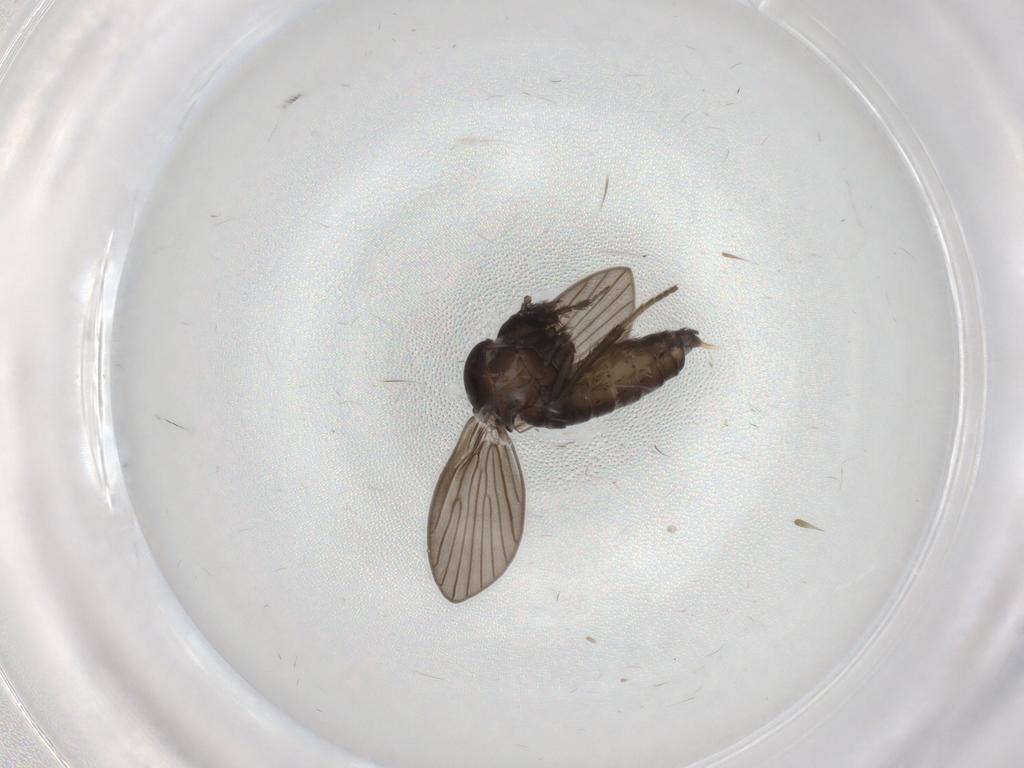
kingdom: Animalia
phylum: Arthropoda
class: Insecta
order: Diptera
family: Psychodidae
